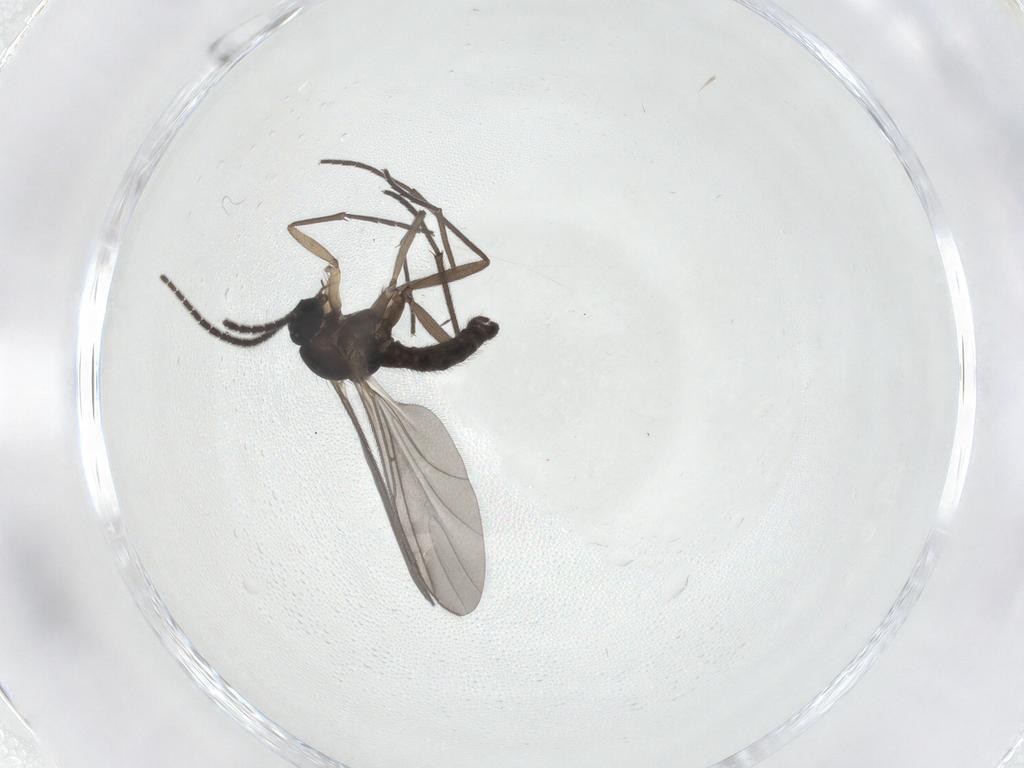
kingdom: Animalia
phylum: Arthropoda
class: Insecta
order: Diptera
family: Sciaridae
